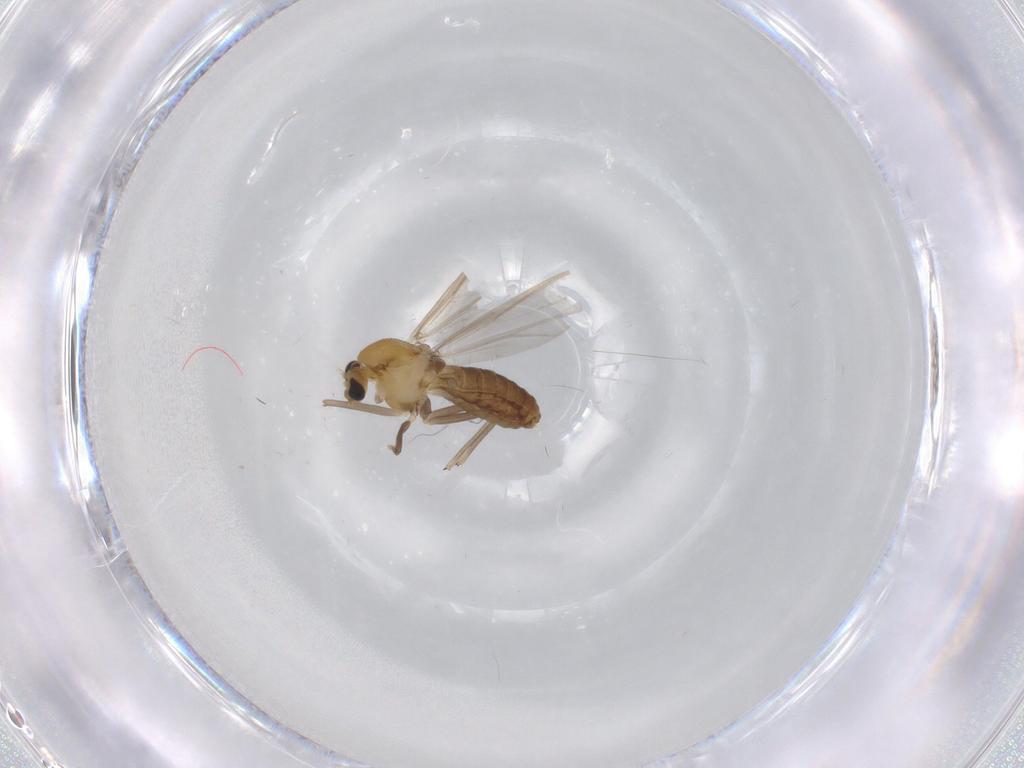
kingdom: Animalia
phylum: Arthropoda
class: Insecta
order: Diptera
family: Chironomidae
